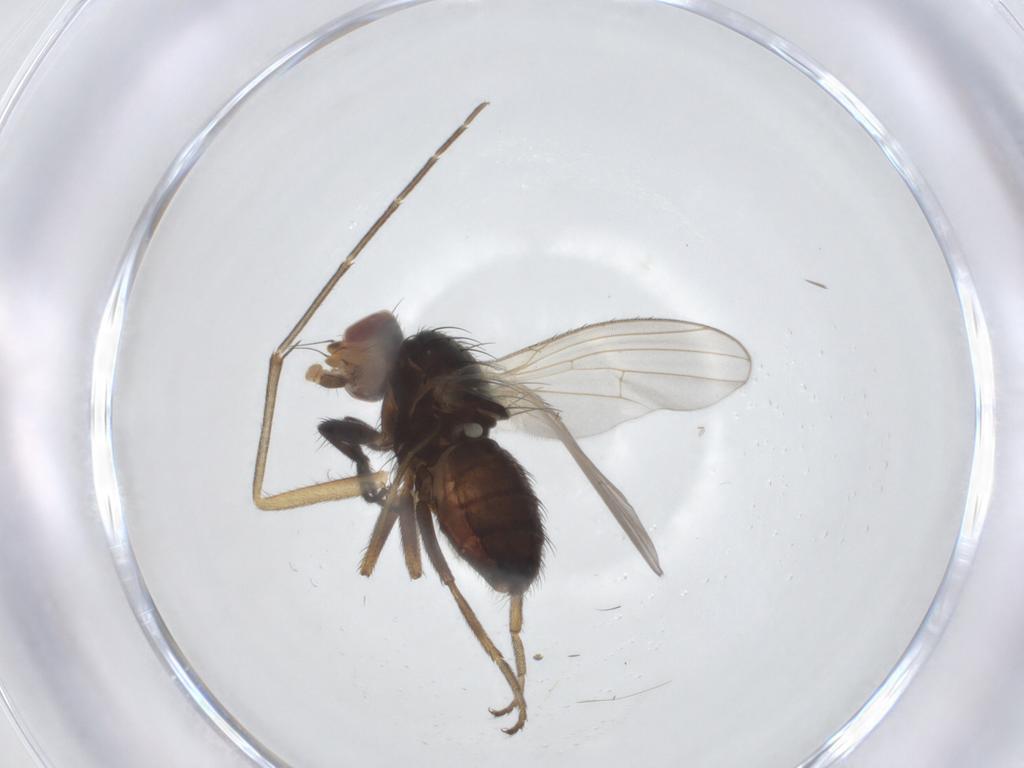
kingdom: Animalia
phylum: Arthropoda
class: Insecta
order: Diptera
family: Heleomyzidae
